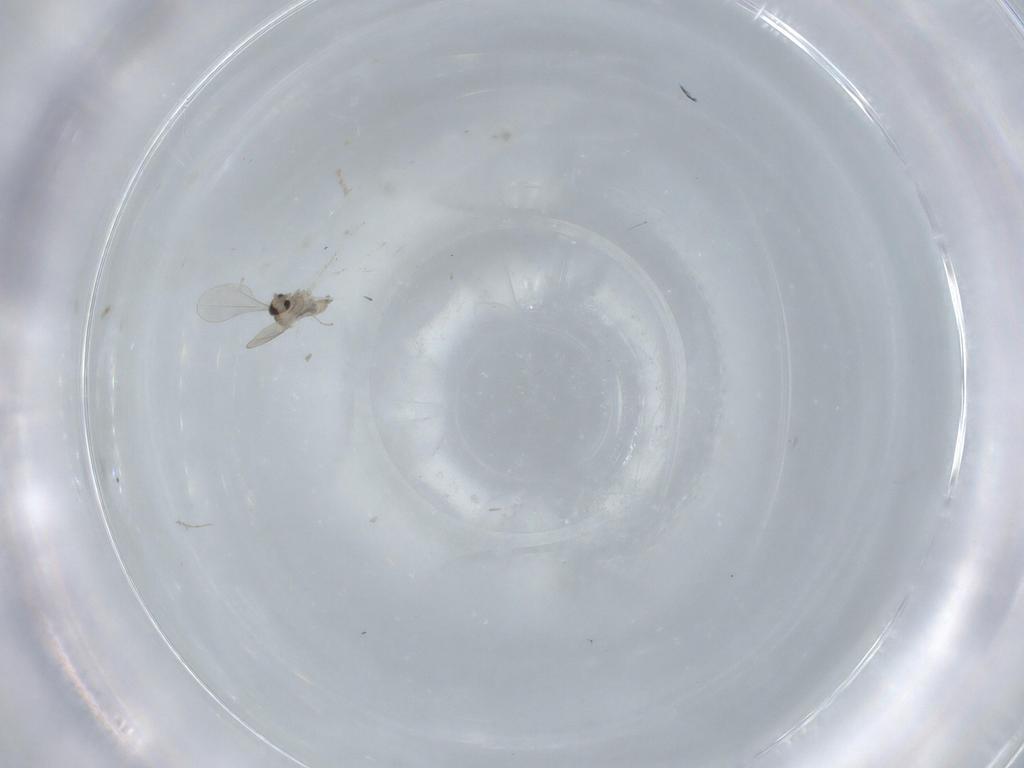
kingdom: Animalia
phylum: Arthropoda
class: Insecta
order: Diptera
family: Cecidomyiidae
